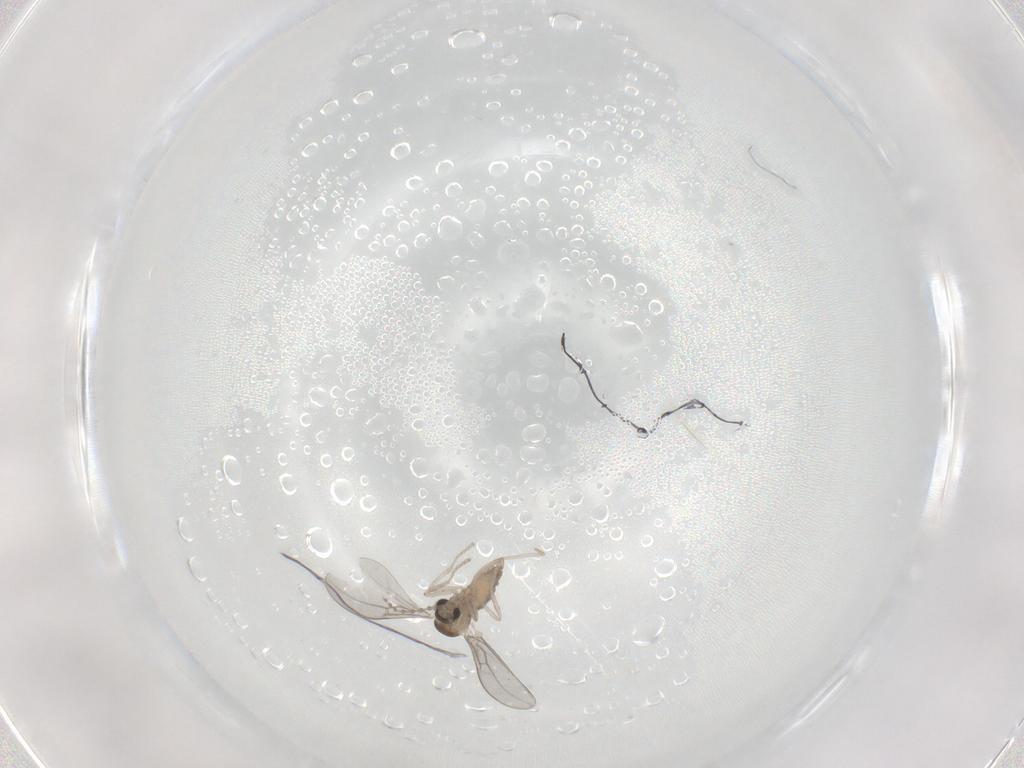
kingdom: Animalia
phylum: Arthropoda
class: Insecta
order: Diptera
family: Cecidomyiidae
